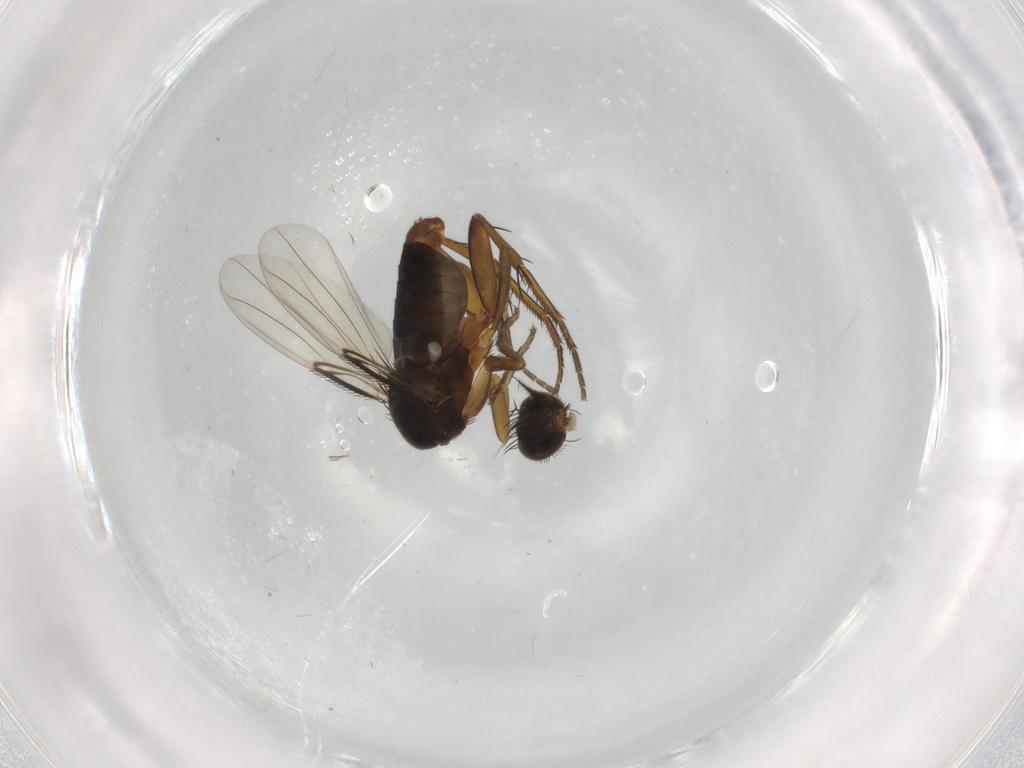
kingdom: Animalia
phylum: Arthropoda
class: Insecta
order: Diptera
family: Phoridae
